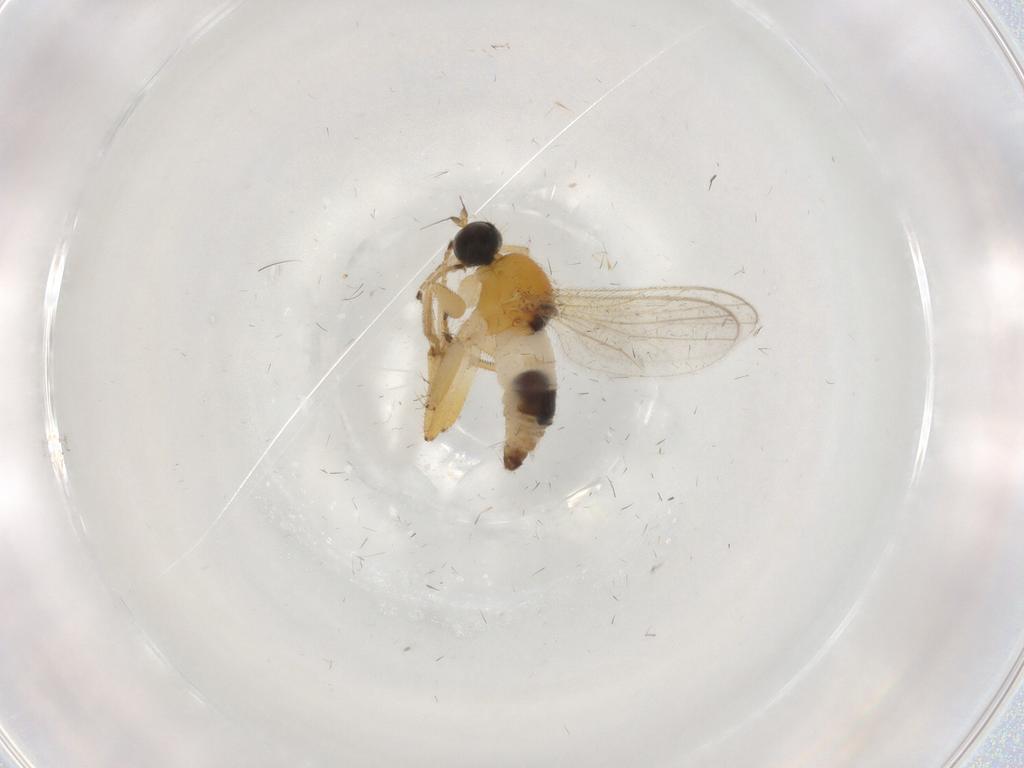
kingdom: Animalia
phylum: Arthropoda
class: Insecta
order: Diptera
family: Hybotidae
